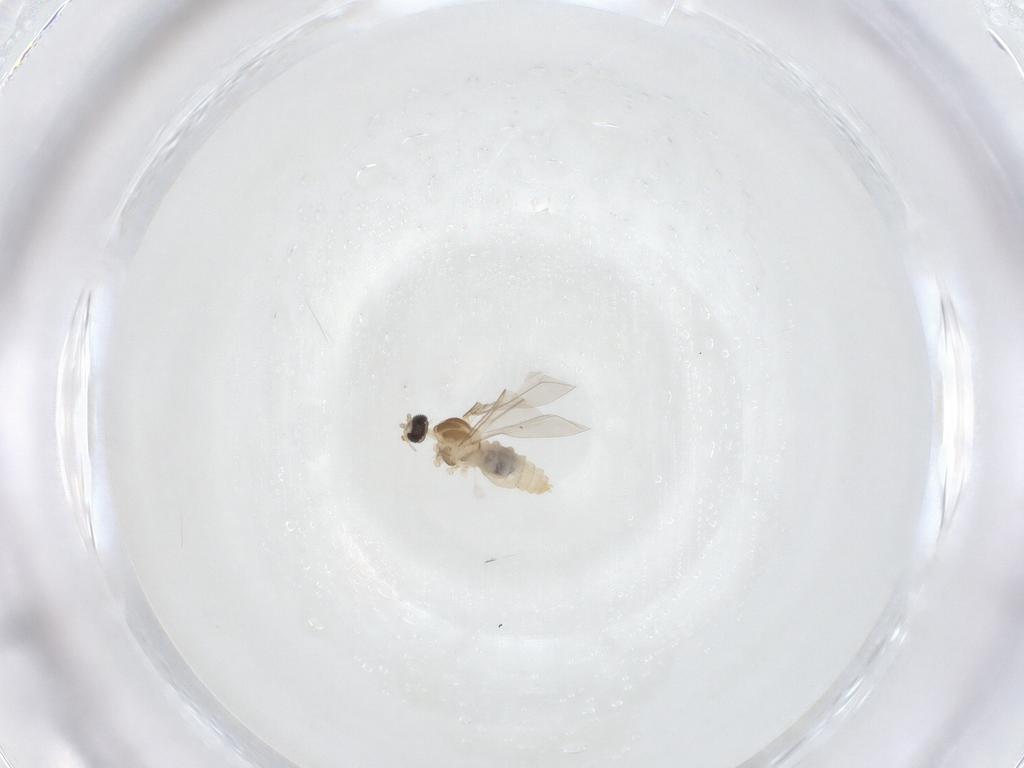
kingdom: Animalia
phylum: Arthropoda
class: Insecta
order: Diptera
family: Cecidomyiidae
